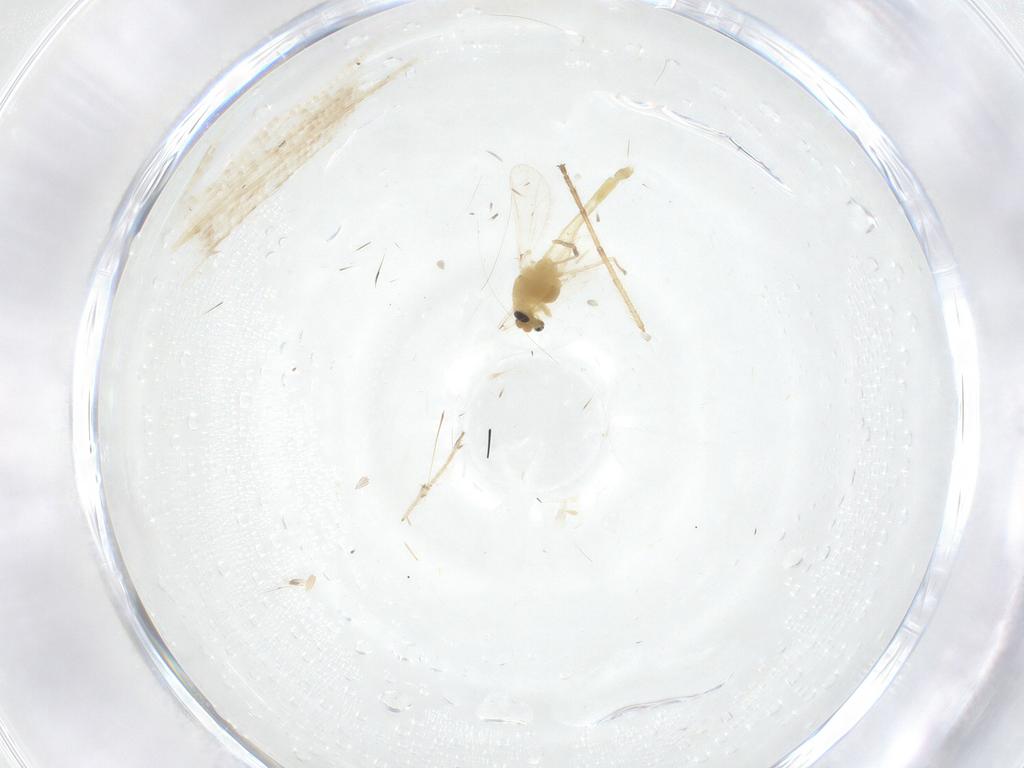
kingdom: Animalia
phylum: Arthropoda
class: Insecta
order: Diptera
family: Chironomidae
